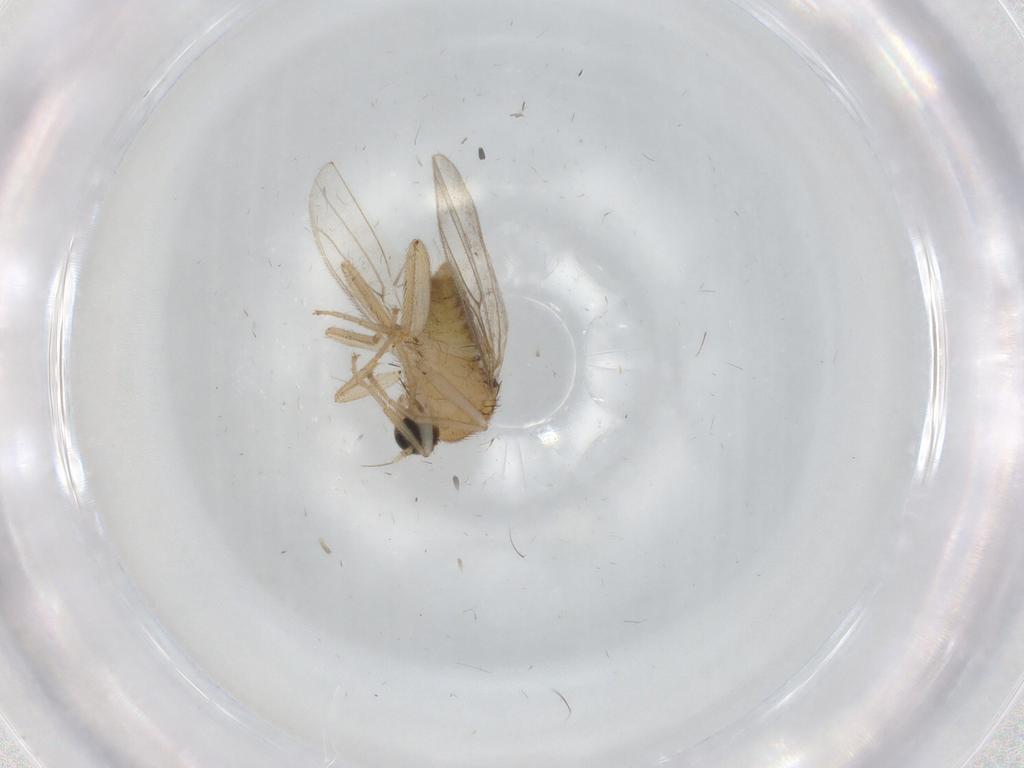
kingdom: Animalia
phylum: Arthropoda
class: Insecta
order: Diptera
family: Hybotidae
